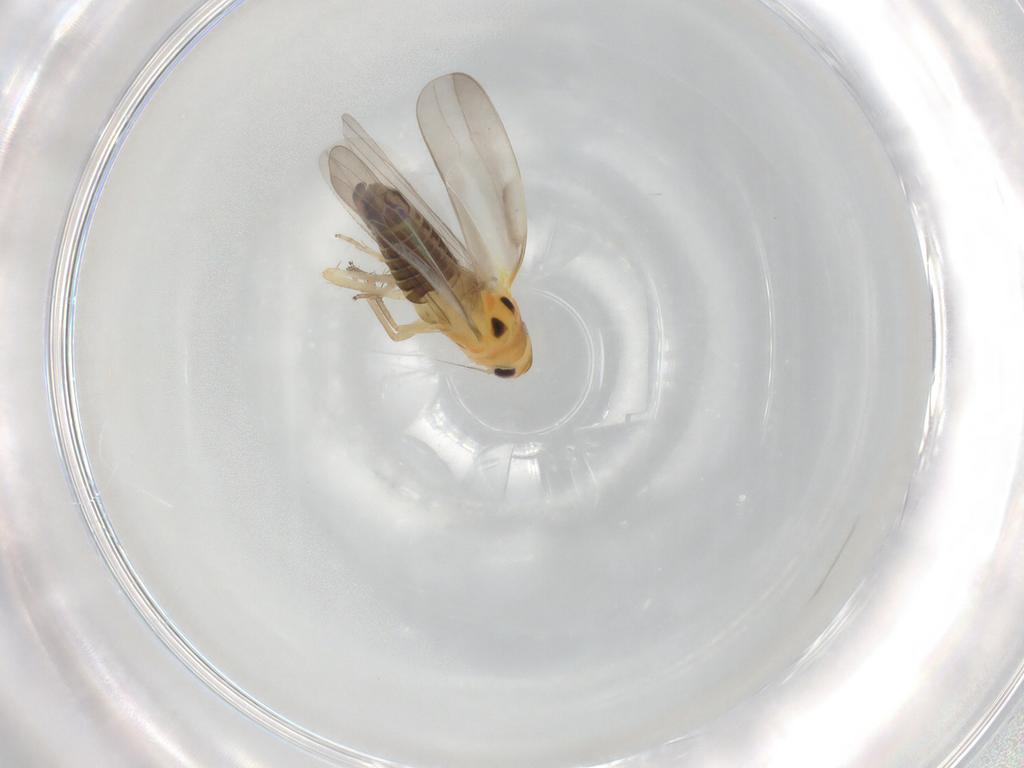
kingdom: Animalia
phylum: Arthropoda
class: Insecta
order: Hemiptera
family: Cicadellidae
